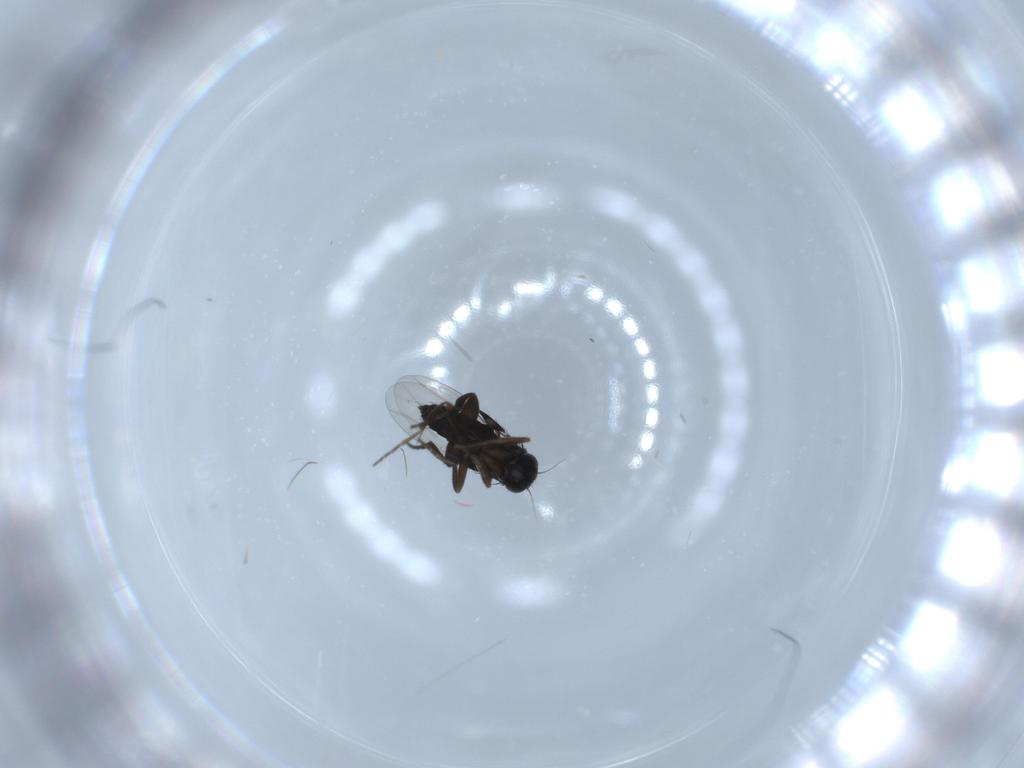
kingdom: Animalia
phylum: Arthropoda
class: Insecta
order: Diptera
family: Phoridae
